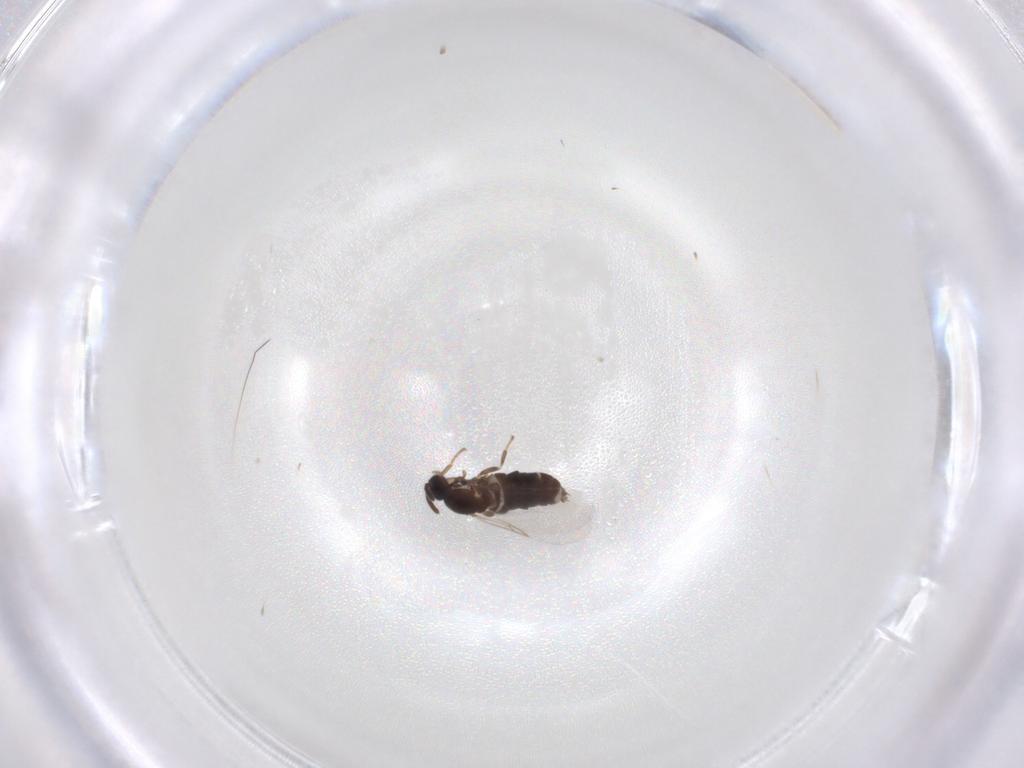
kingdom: Animalia
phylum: Arthropoda
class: Insecta
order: Diptera
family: Scatopsidae
